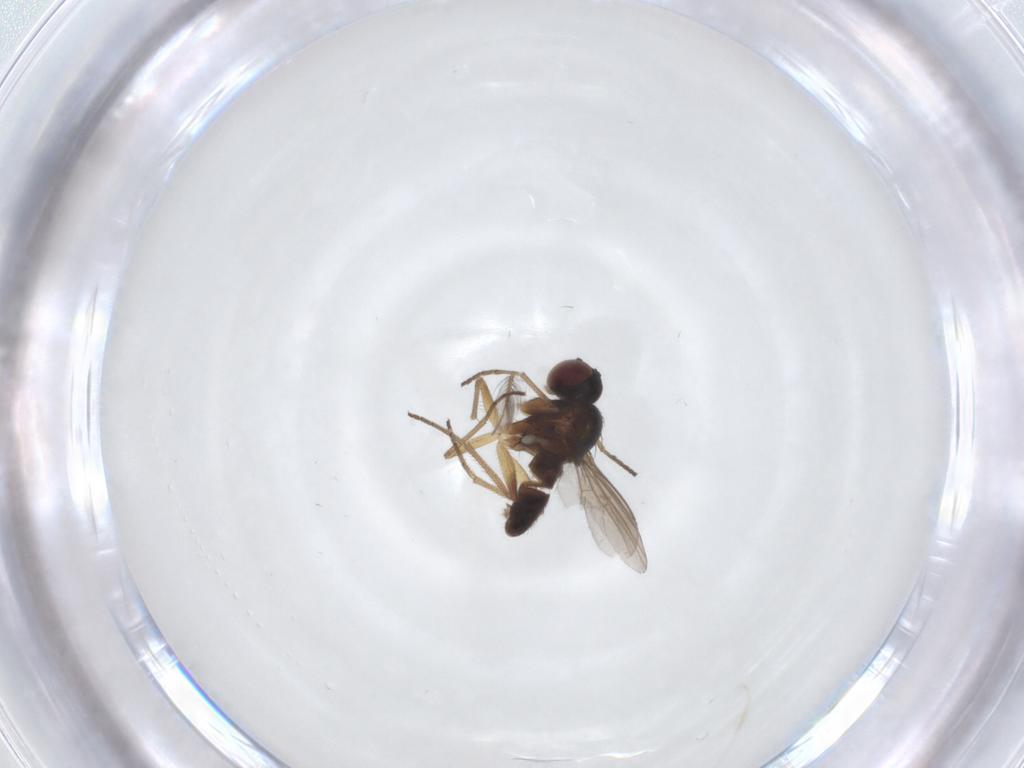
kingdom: Animalia
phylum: Arthropoda
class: Insecta
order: Diptera
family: Dolichopodidae
